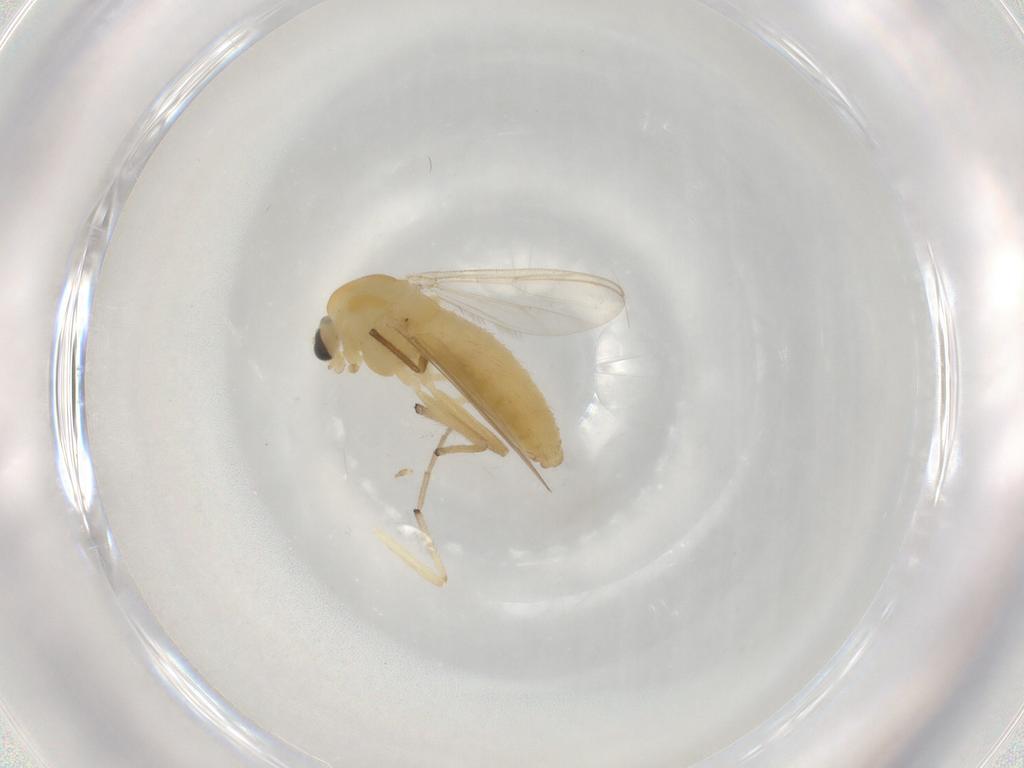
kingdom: Animalia
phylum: Arthropoda
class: Insecta
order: Diptera
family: Chironomidae
